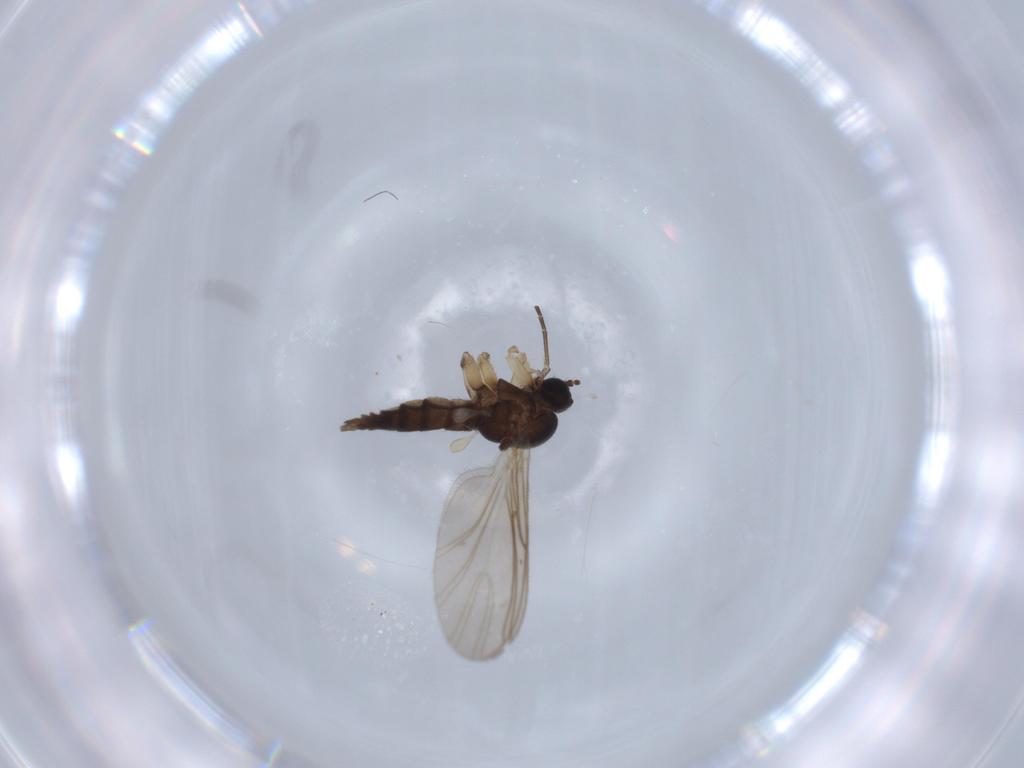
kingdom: Animalia
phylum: Arthropoda
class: Insecta
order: Diptera
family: Sciaridae
